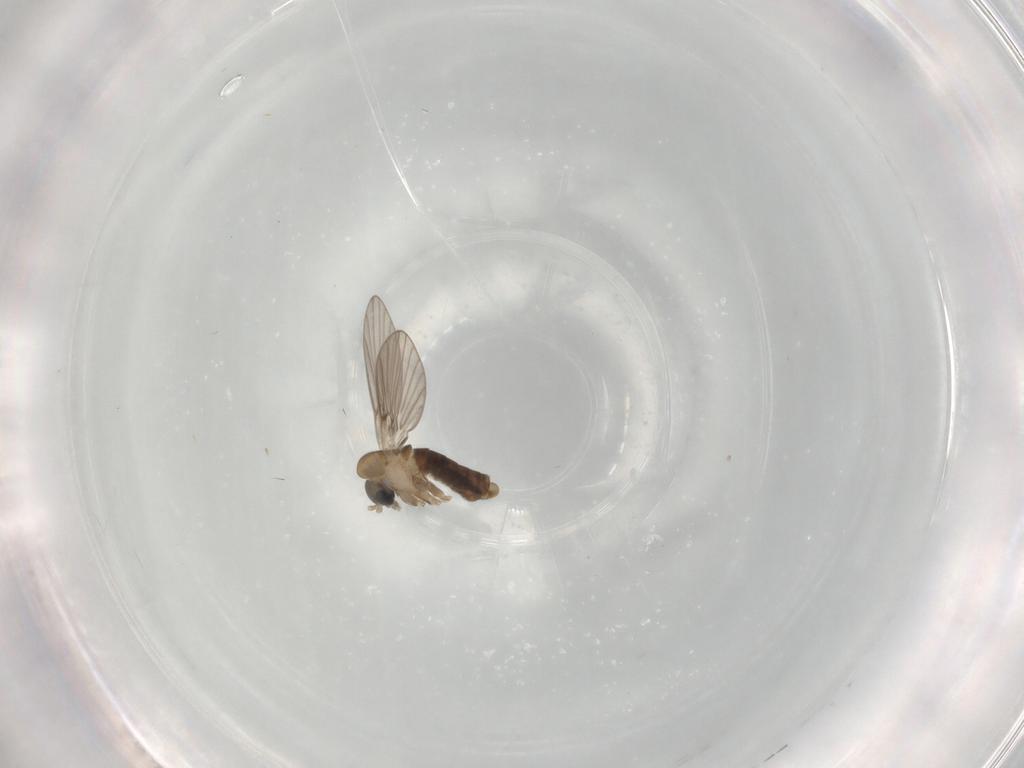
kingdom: Animalia
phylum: Arthropoda
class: Insecta
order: Diptera
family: Psychodidae
